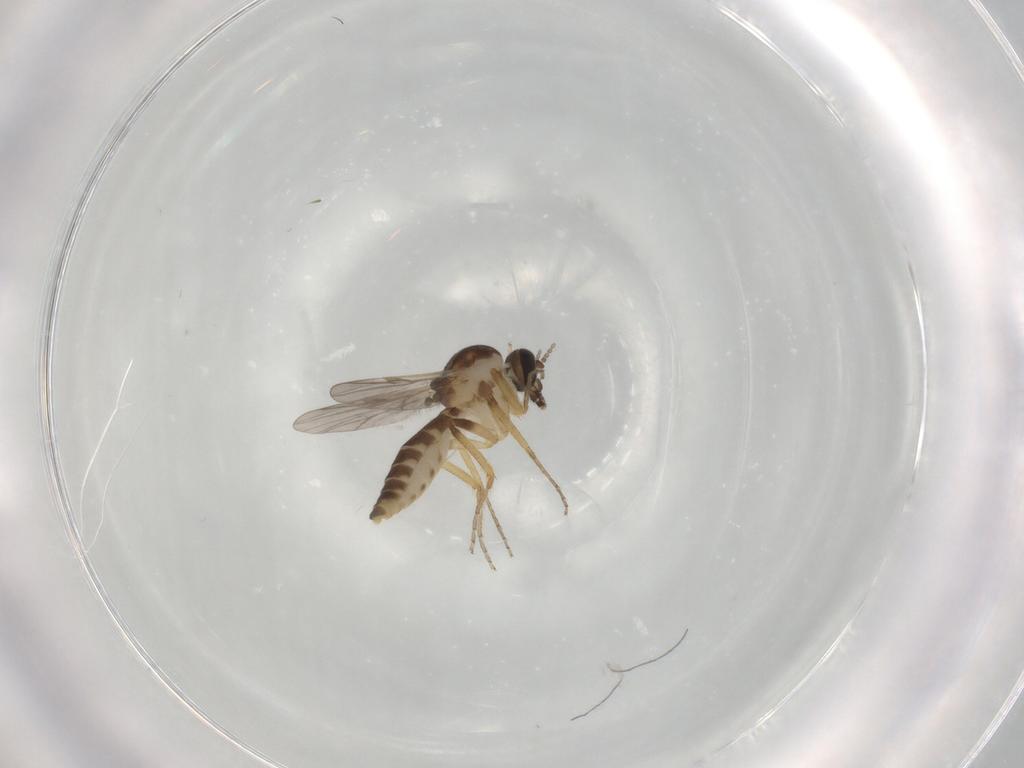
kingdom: Animalia
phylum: Arthropoda
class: Insecta
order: Diptera
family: Ceratopogonidae
